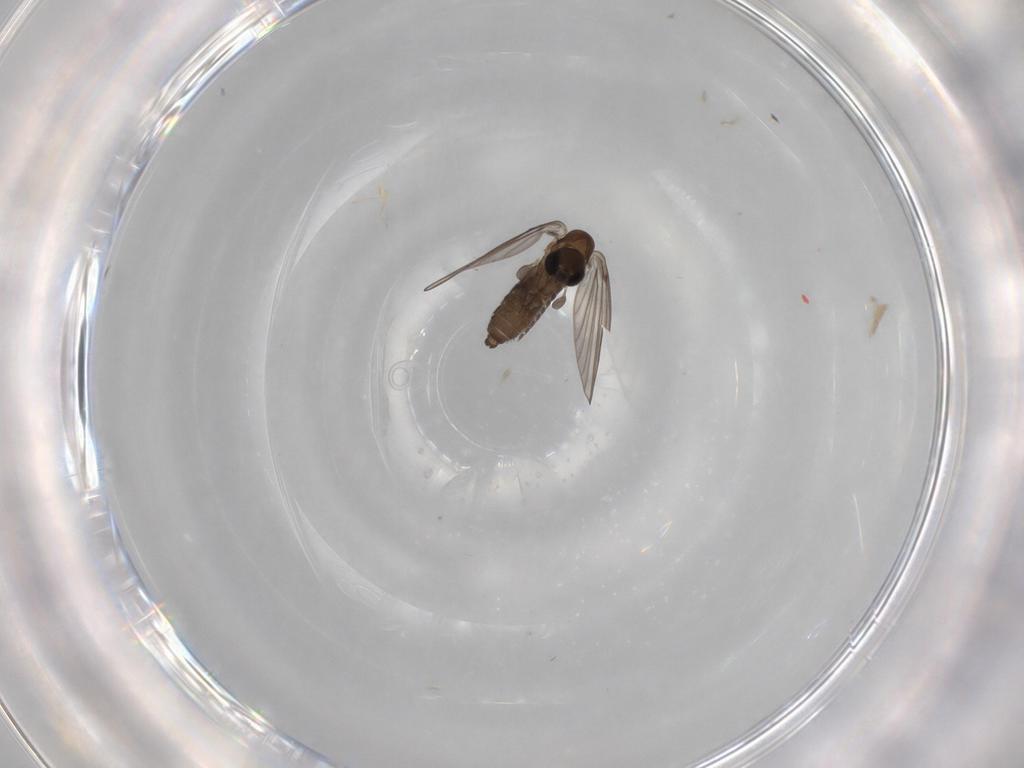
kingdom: Animalia
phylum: Arthropoda
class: Insecta
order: Diptera
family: Psychodidae
